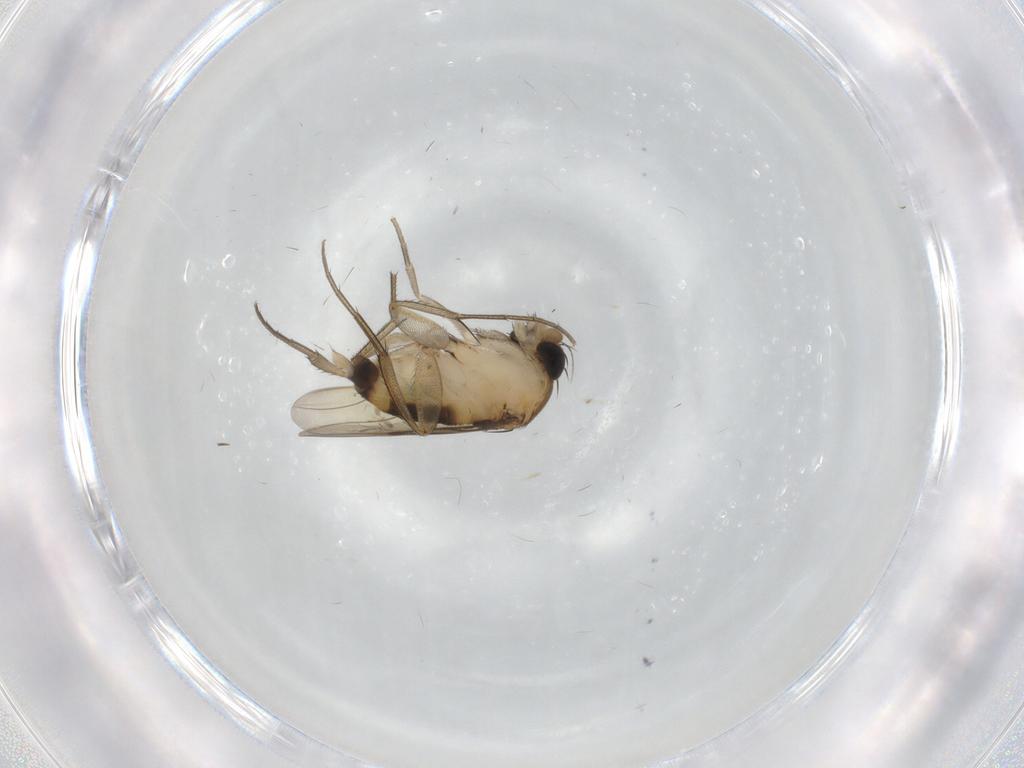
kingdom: Animalia
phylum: Arthropoda
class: Insecta
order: Diptera
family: Phoridae
